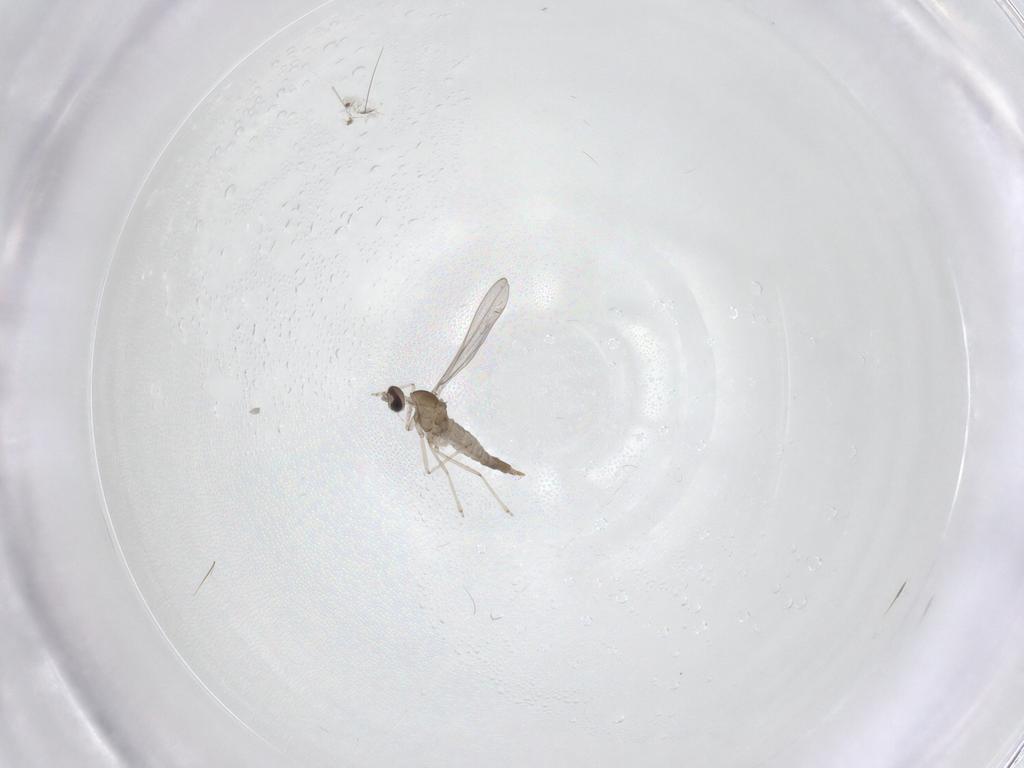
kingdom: Animalia
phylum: Arthropoda
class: Insecta
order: Diptera
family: Cecidomyiidae
